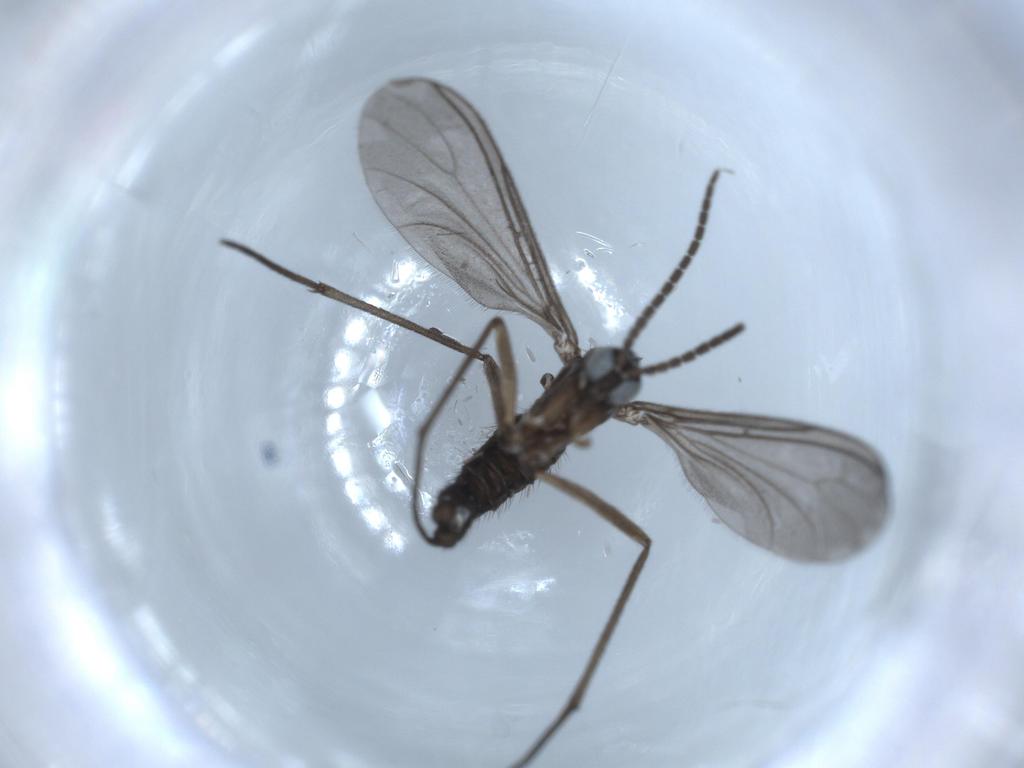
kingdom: Animalia
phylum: Arthropoda
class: Insecta
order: Diptera
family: Sciaridae
